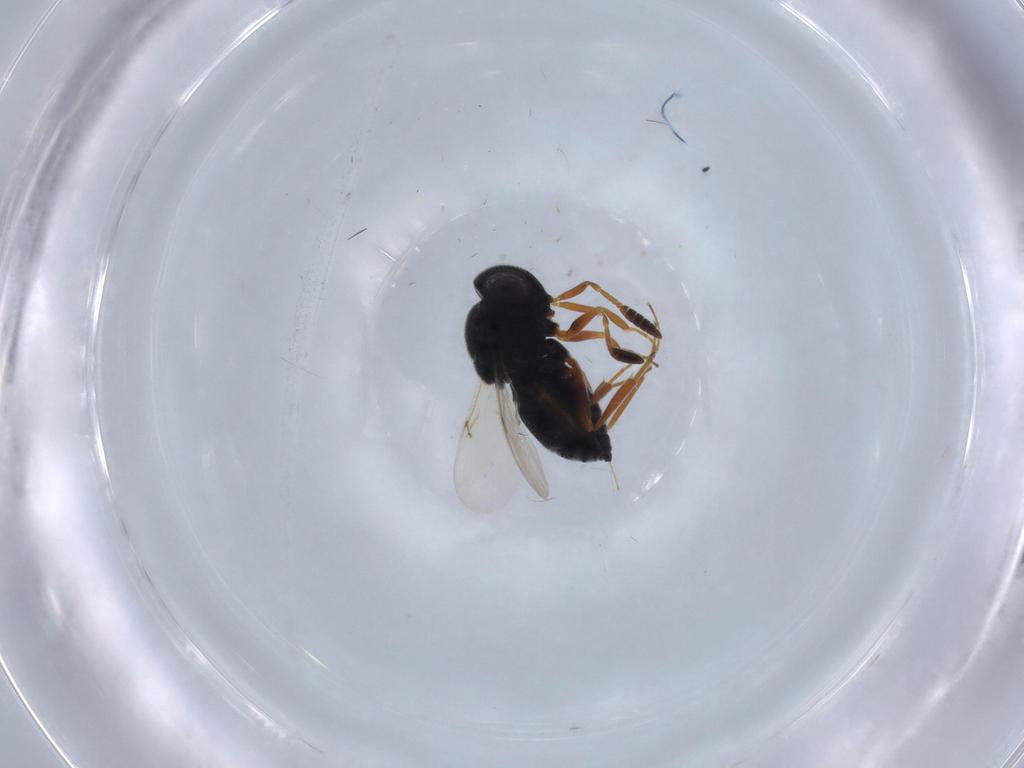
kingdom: Animalia
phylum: Arthropoda
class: Insecta
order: Hymenoptera
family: Scelionidae
